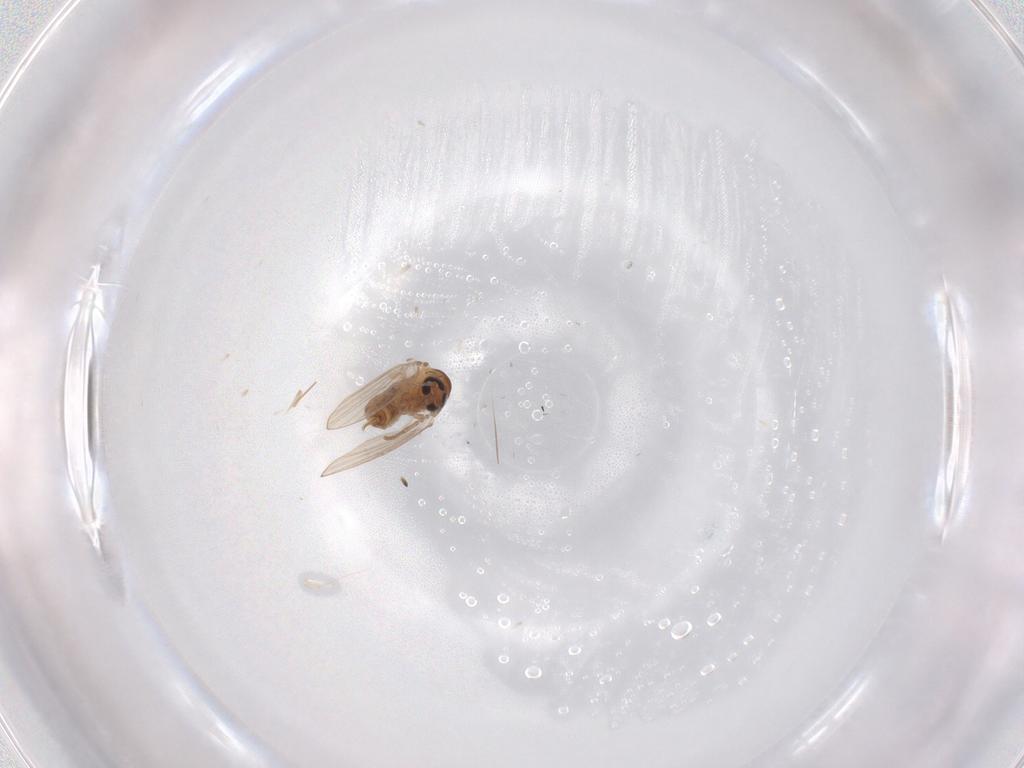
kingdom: Animalia
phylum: Arthropoda
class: Insecta
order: Diptera
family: Psychodidae
